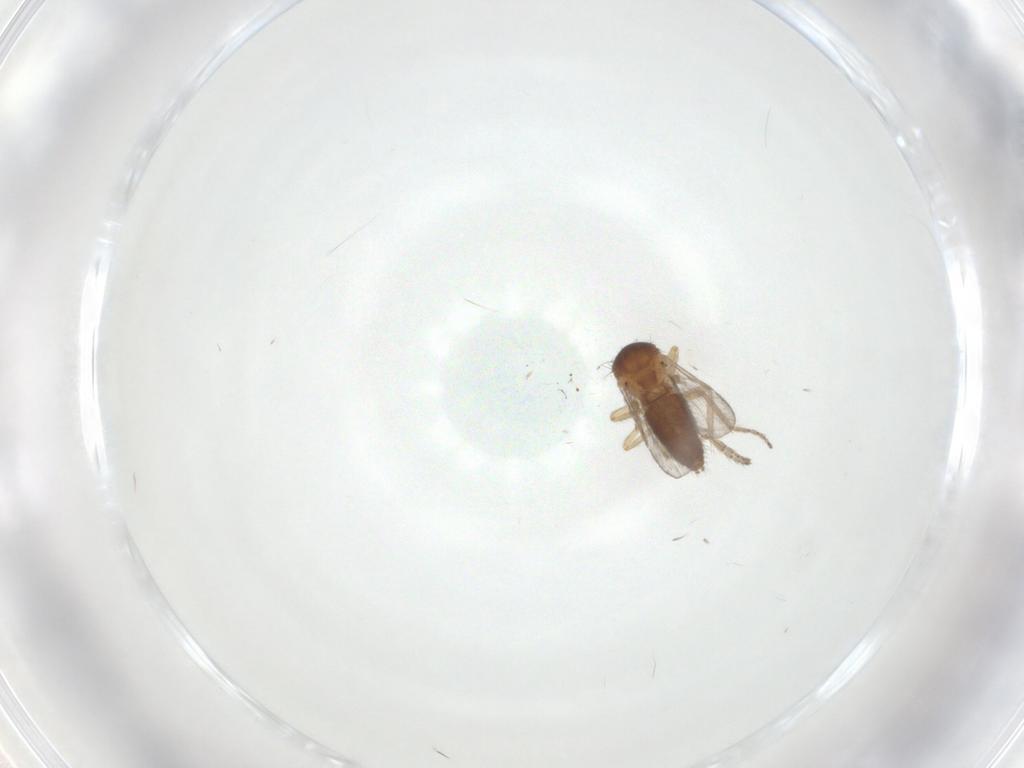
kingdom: Animalia
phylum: Arthropoda
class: Insecta
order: Diptera
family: Ceratopogonidae
